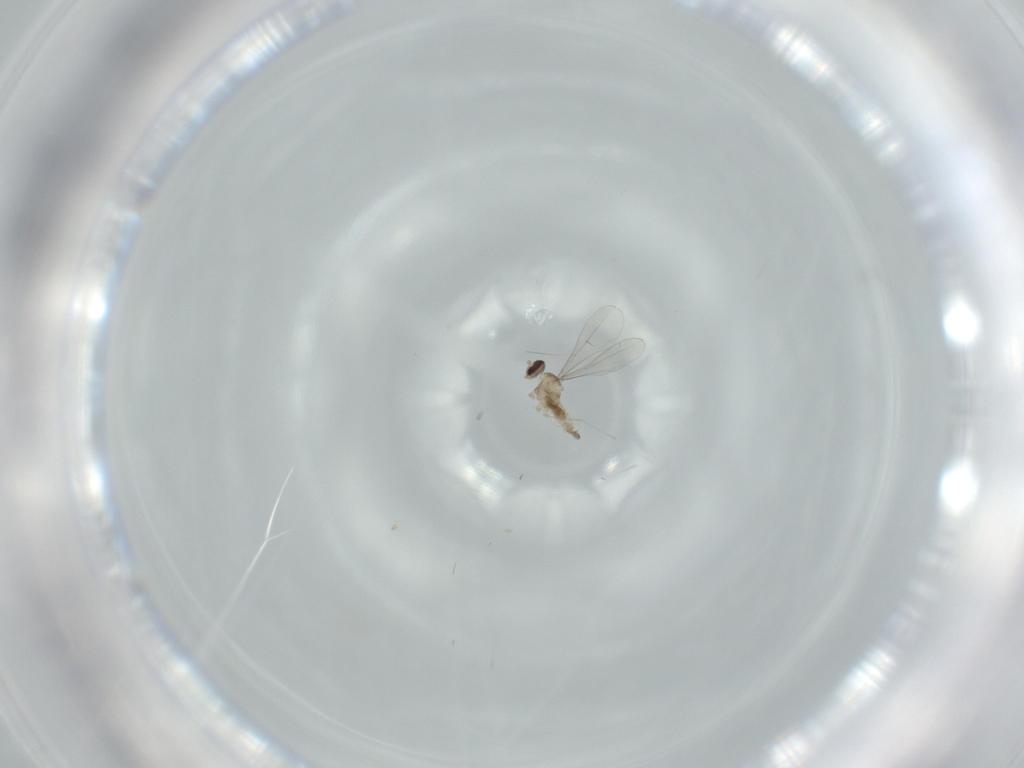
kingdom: Animalia
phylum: Arthropoda
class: Insecta
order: Diptera
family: Cecidomyiidae
